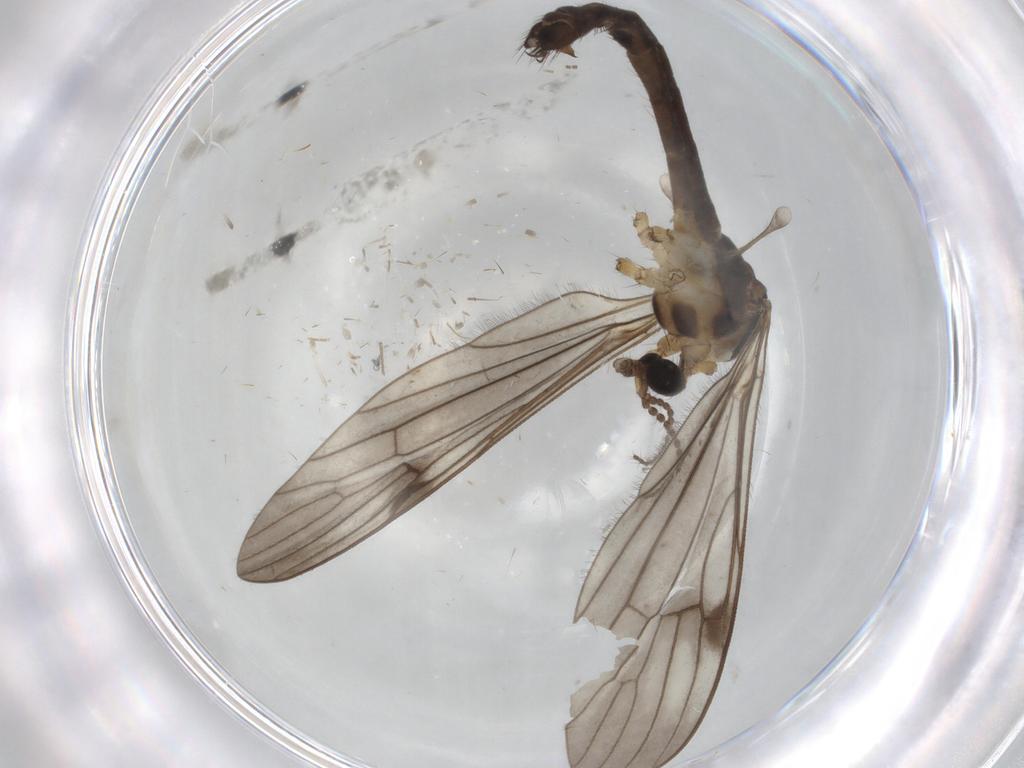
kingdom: Animalia
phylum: Arthropoda
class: Insecta
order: Diptera
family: Limoniidae
